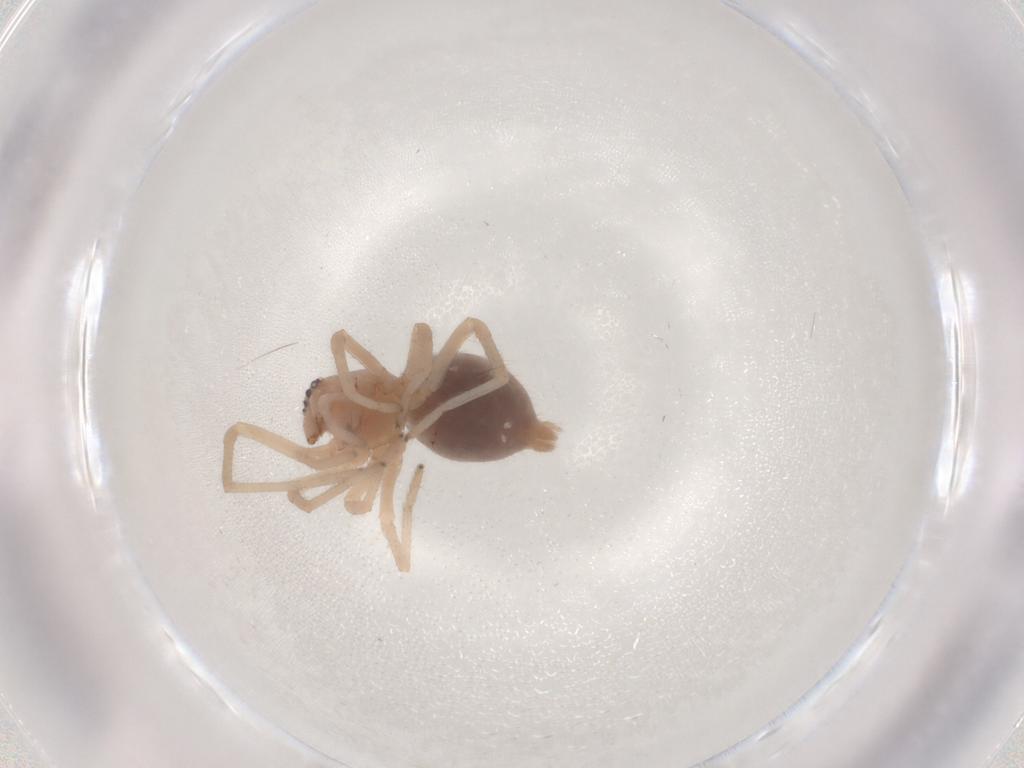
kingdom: Animalia
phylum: Arthropoda
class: Arachnida
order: Araneae
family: Cheiracanthiidae
